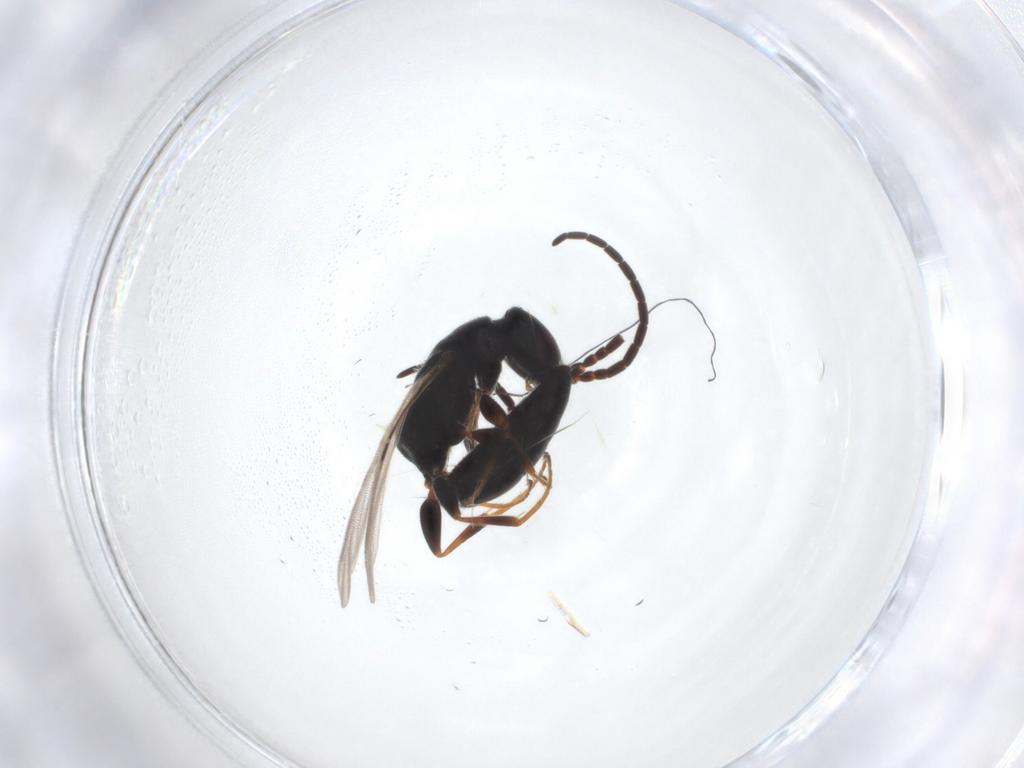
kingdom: Animalia
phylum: Arthropoda
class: Insecta
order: Hymenoptera
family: Bethylidae
